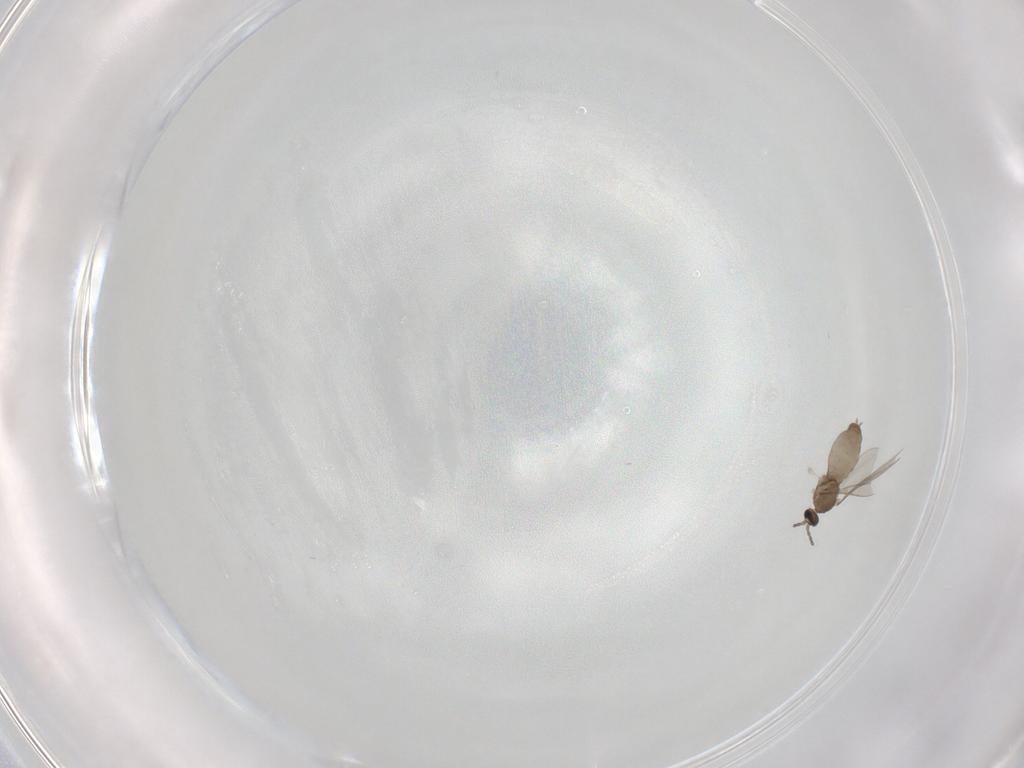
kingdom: Animalia
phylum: Arthropoda
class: Insecta
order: Diptera
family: Chironomidae
